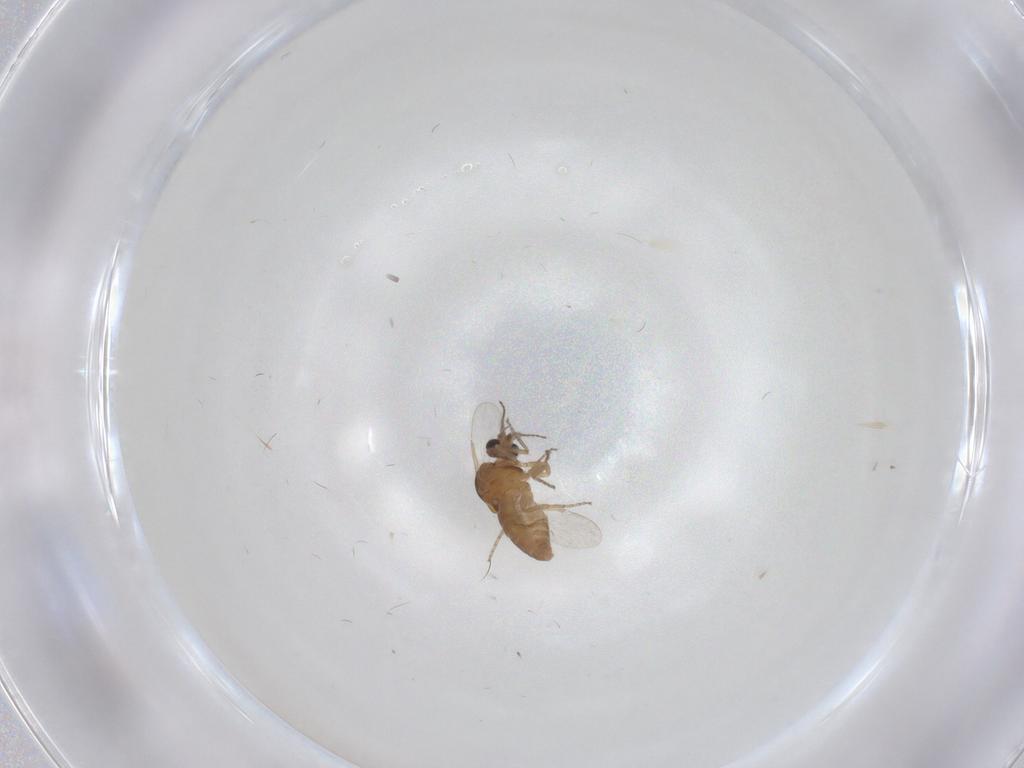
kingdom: Animalia
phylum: Arthropoda
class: Insecta
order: Diptera
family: Ceratopogonidae
